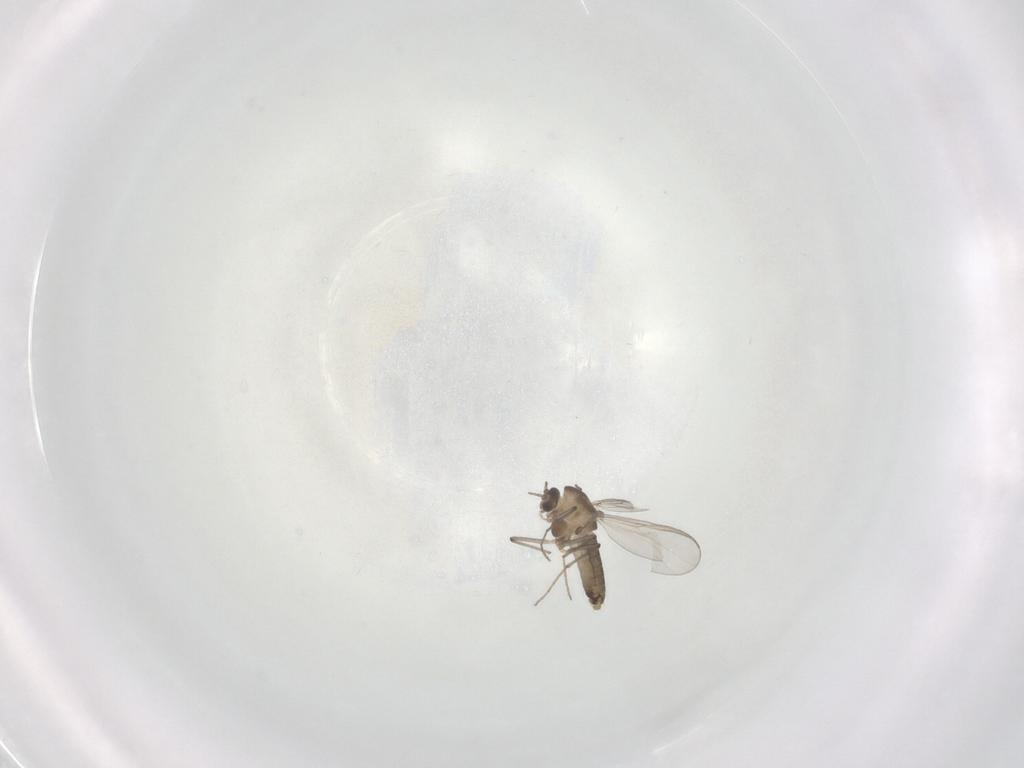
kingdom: Animalia
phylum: Arthropoda
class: Insecta
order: Diptera
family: Chironomidae
